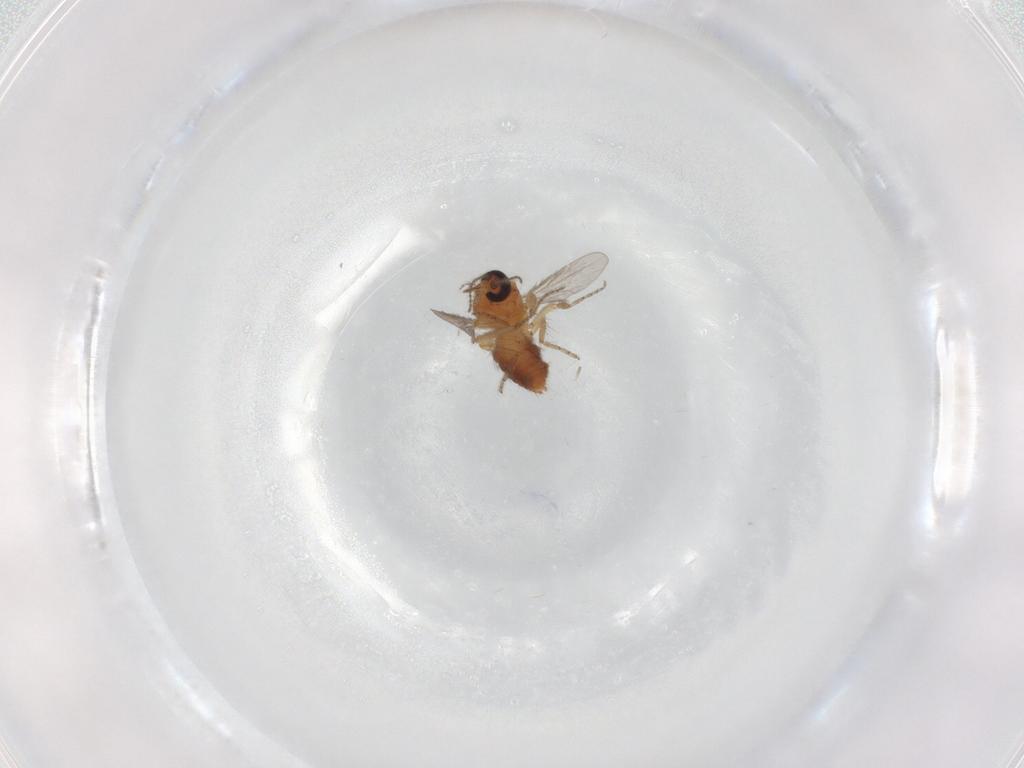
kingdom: Animalia
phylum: Arthropoda
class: Insecta
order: Diptera
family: Ceratopogonidae
